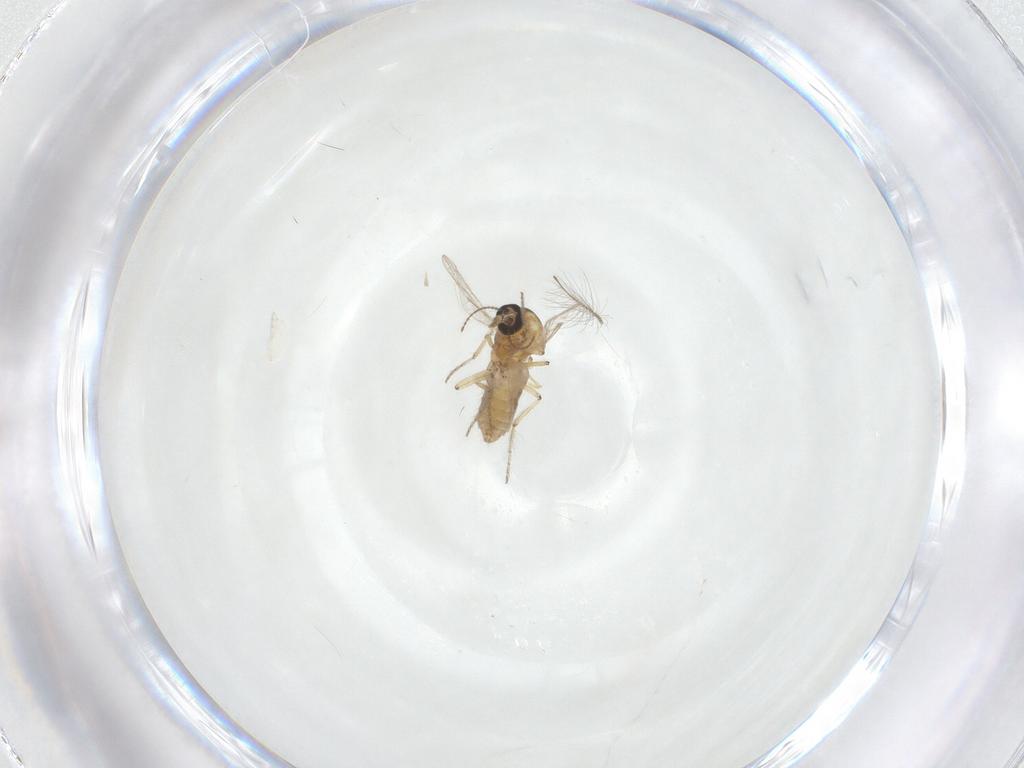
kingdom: Animalia
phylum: Arthropoda
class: Insecta
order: Diptera
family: Ceratopogonidae
